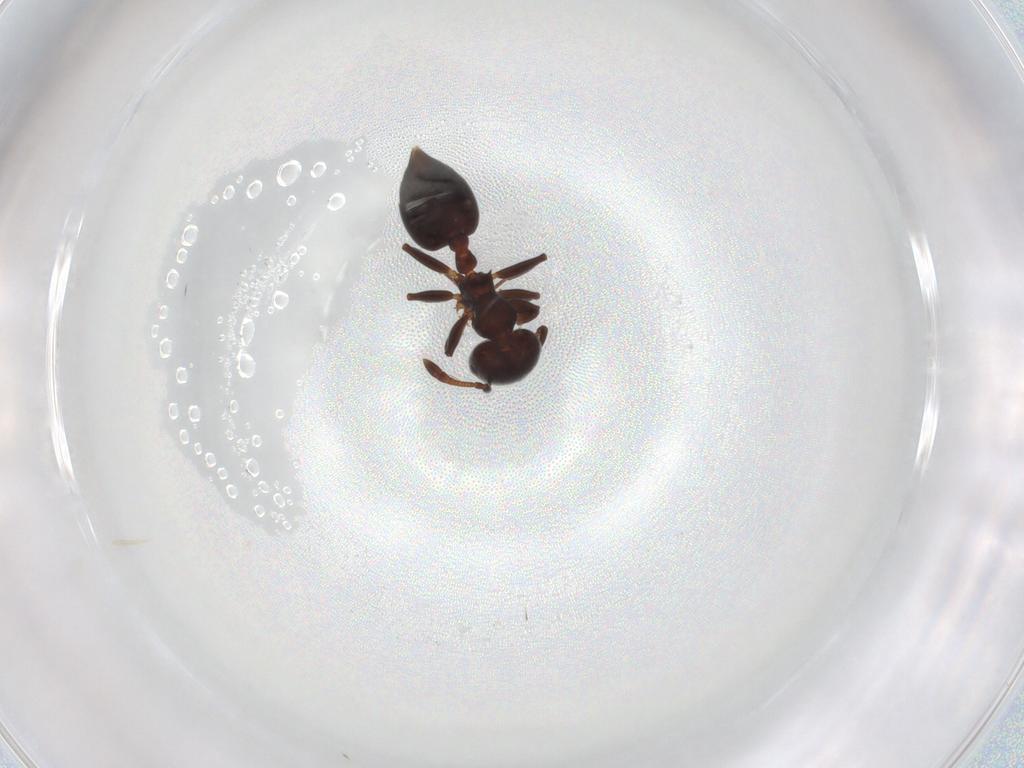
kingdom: Animalia
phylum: Arthropoda
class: Insecta
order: Hymenoptera
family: Formicidae
